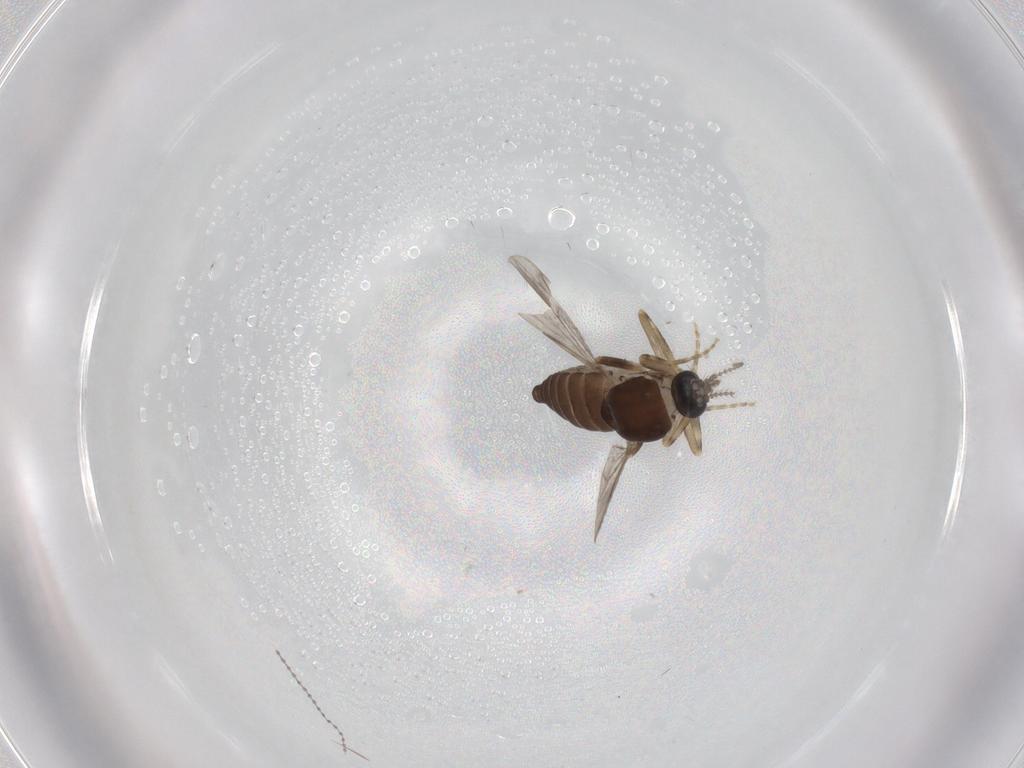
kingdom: Animalia
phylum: Arthropoda
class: Insecta
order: Diptera
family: Ceratopogonidae
